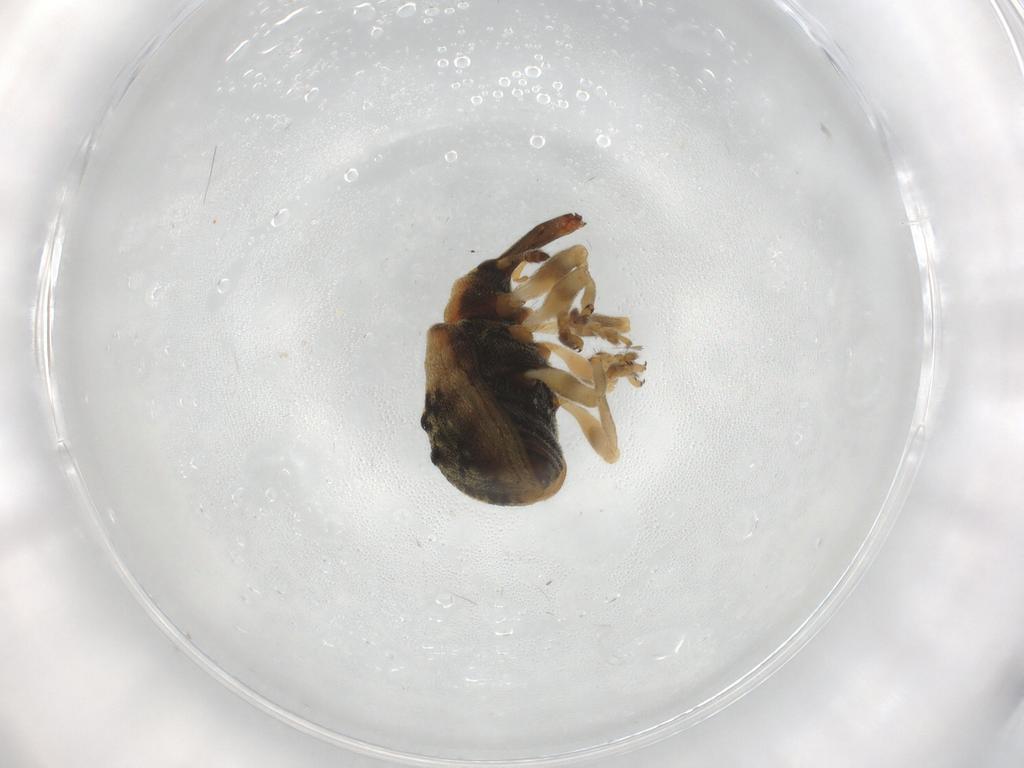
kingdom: Animalia
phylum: Arthropoda
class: Insecta
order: Coleoptera
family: Curculionidae
